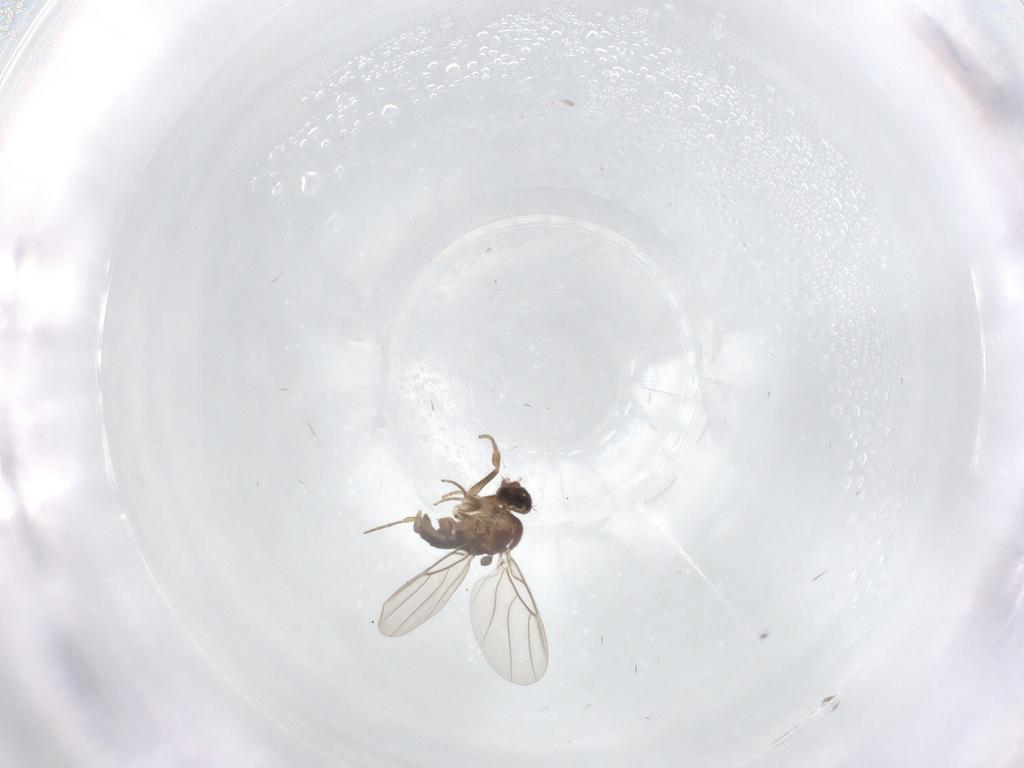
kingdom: Animalia
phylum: Arthropoda
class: Insecta
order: Diptera
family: Phoridae
